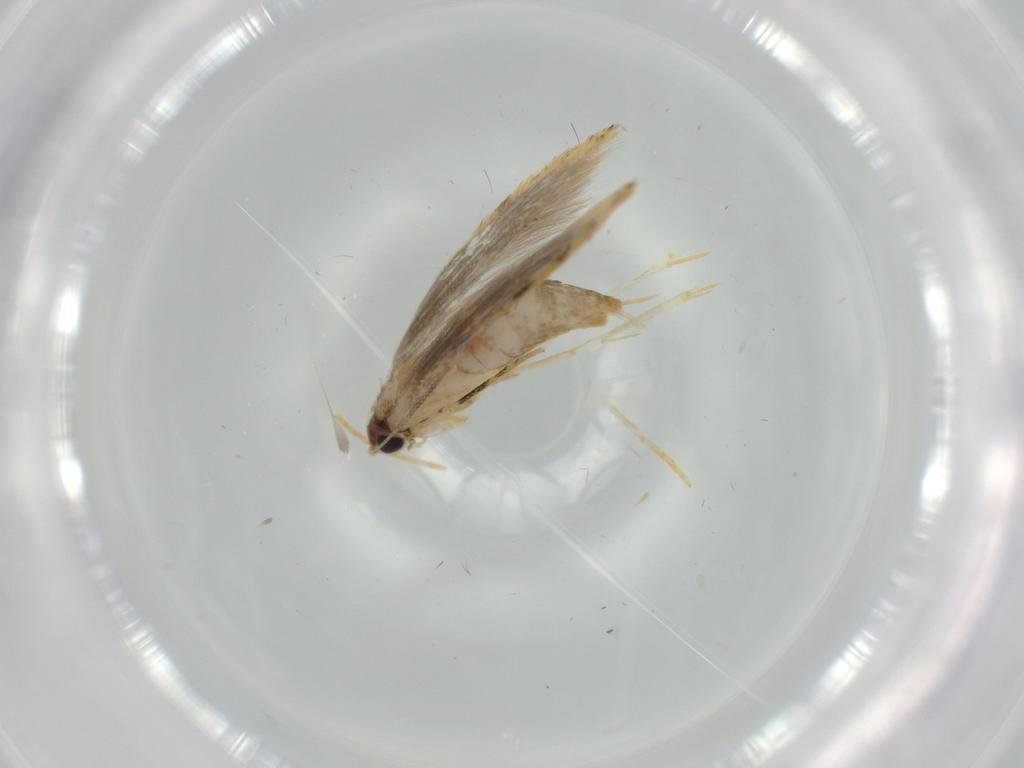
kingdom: Animalia
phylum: Arthropoda
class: Insecta
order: Lepidoptera
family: Tineidae
